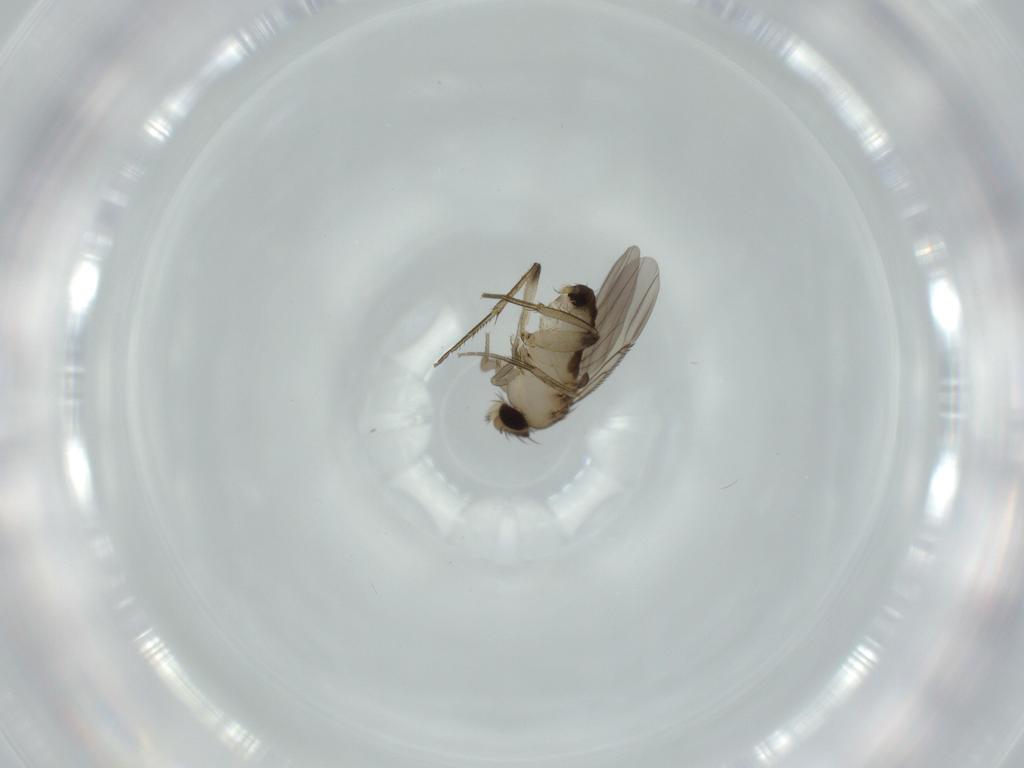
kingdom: Animalia
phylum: Arthropoda
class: Insecta
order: Diptera
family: Phoridae
